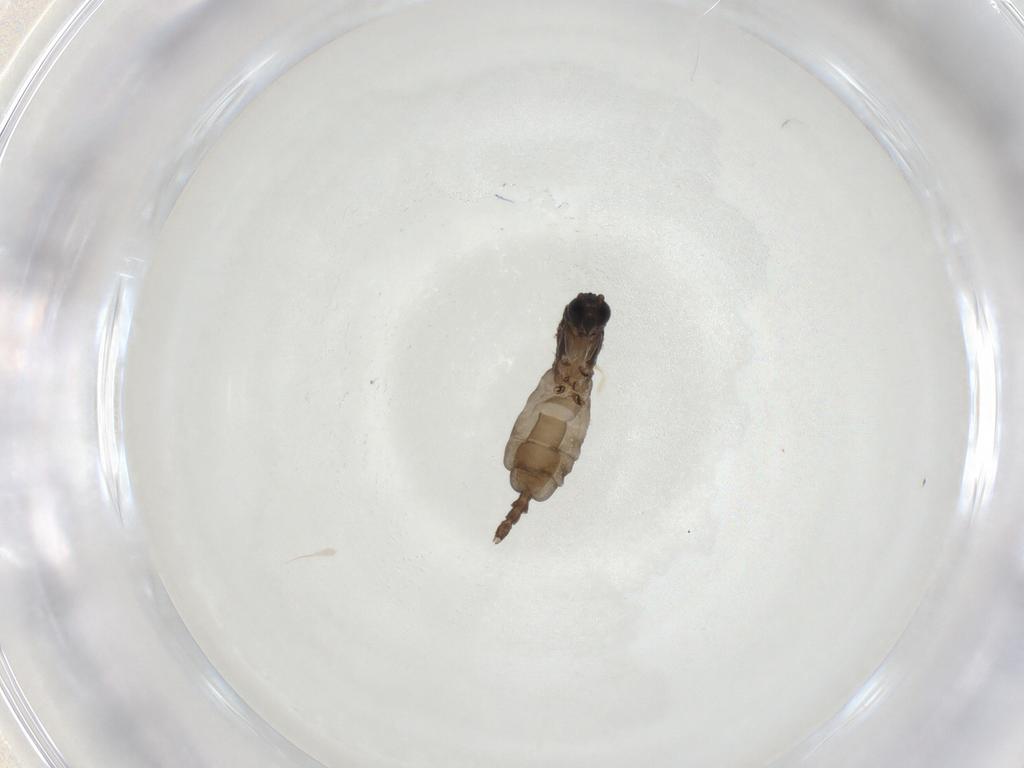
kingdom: Animalia
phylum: Arthropoda
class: Insecta
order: Diptera
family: Sciaridae
